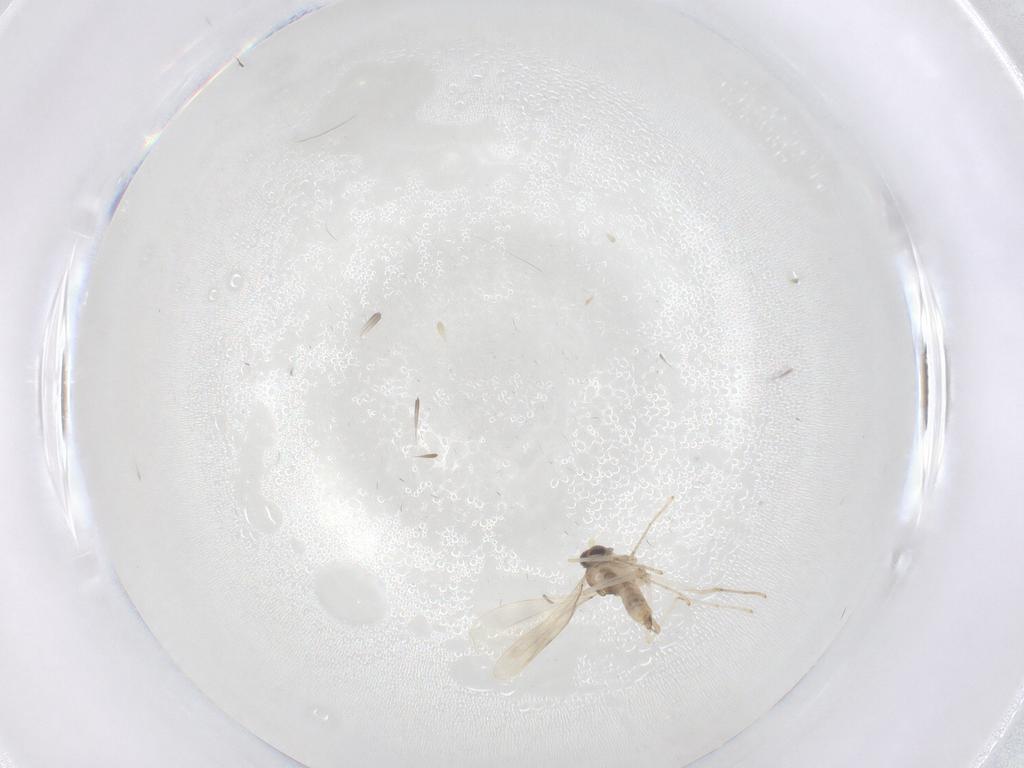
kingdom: Animalia
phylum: Arthropoda
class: Insecta
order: Diptera
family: Cecidomyiidae
